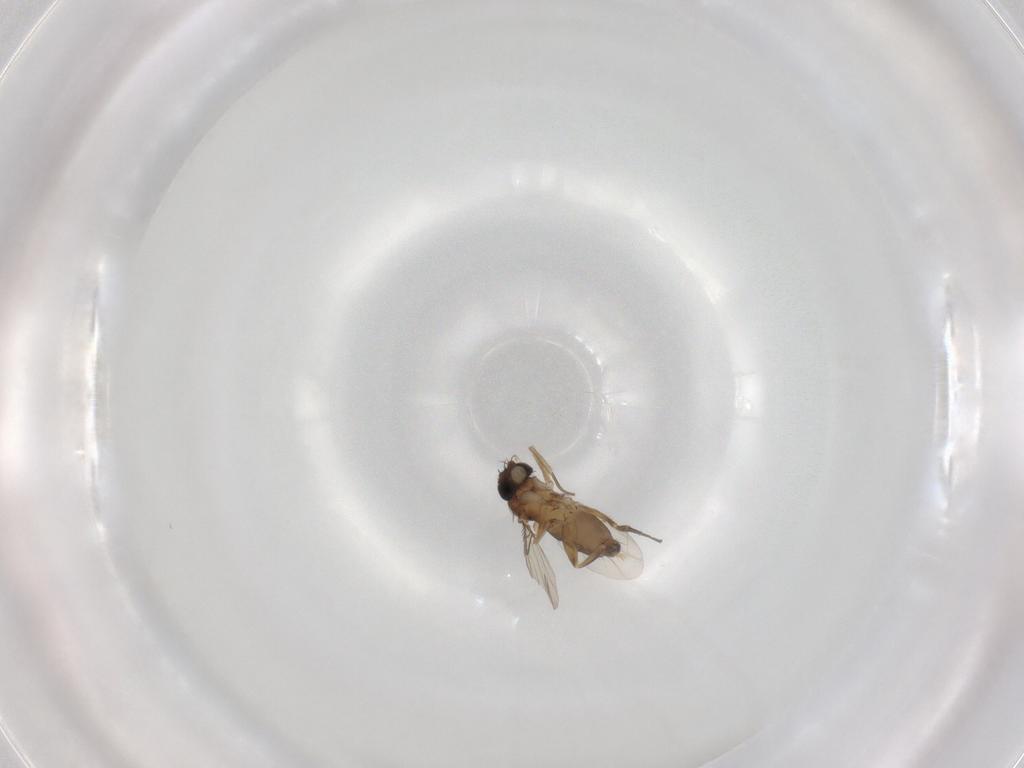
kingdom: Animalia
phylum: Arthropoda
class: Insecta
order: Diptera
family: Phoridae
